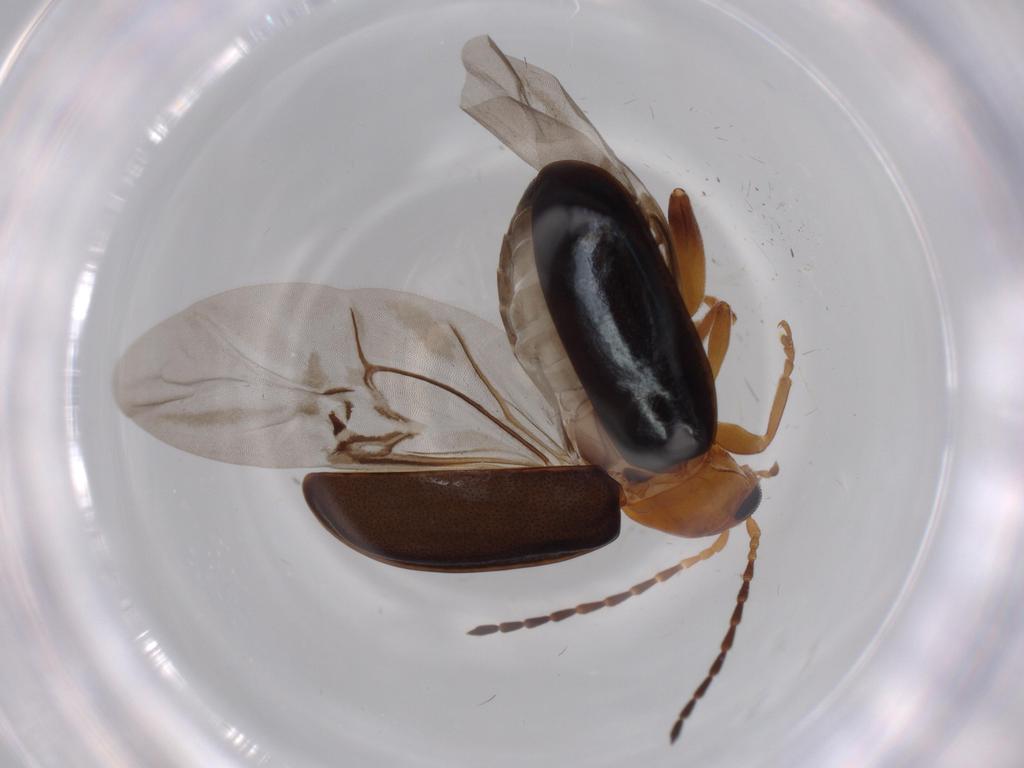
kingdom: Animalia
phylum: Arthropoda
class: Insecta
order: Coleoptera
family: Chrysomelidae
